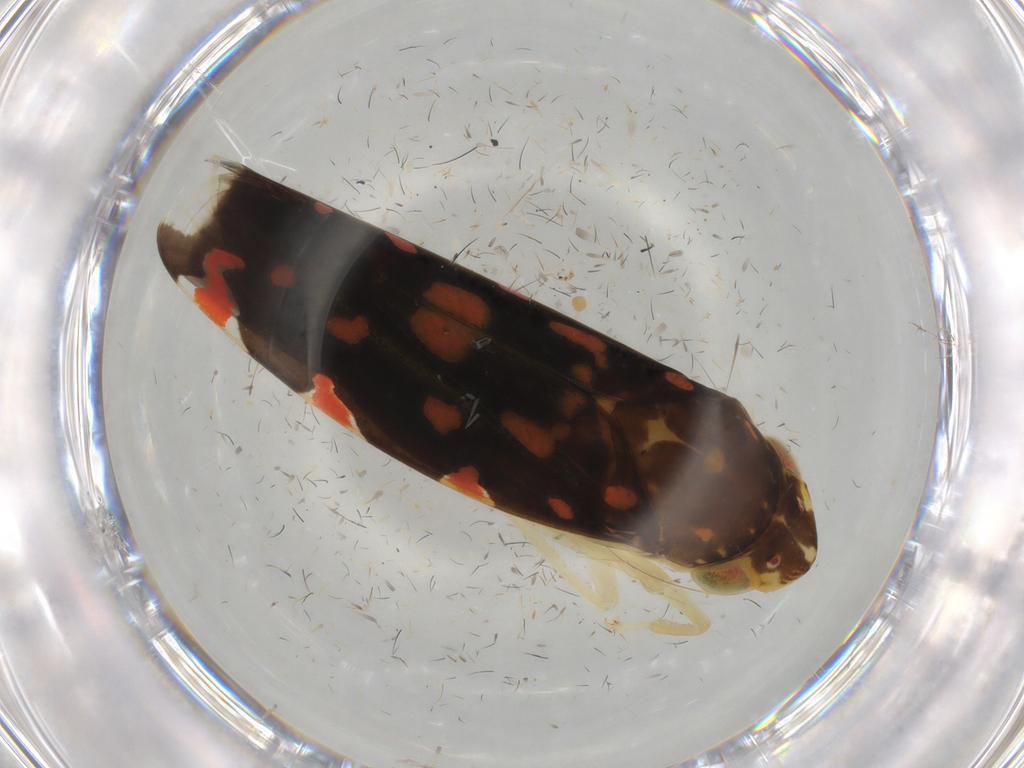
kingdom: Animalia
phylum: Arthropoda
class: Insecta
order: Hemiptera
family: Cicadellidae
